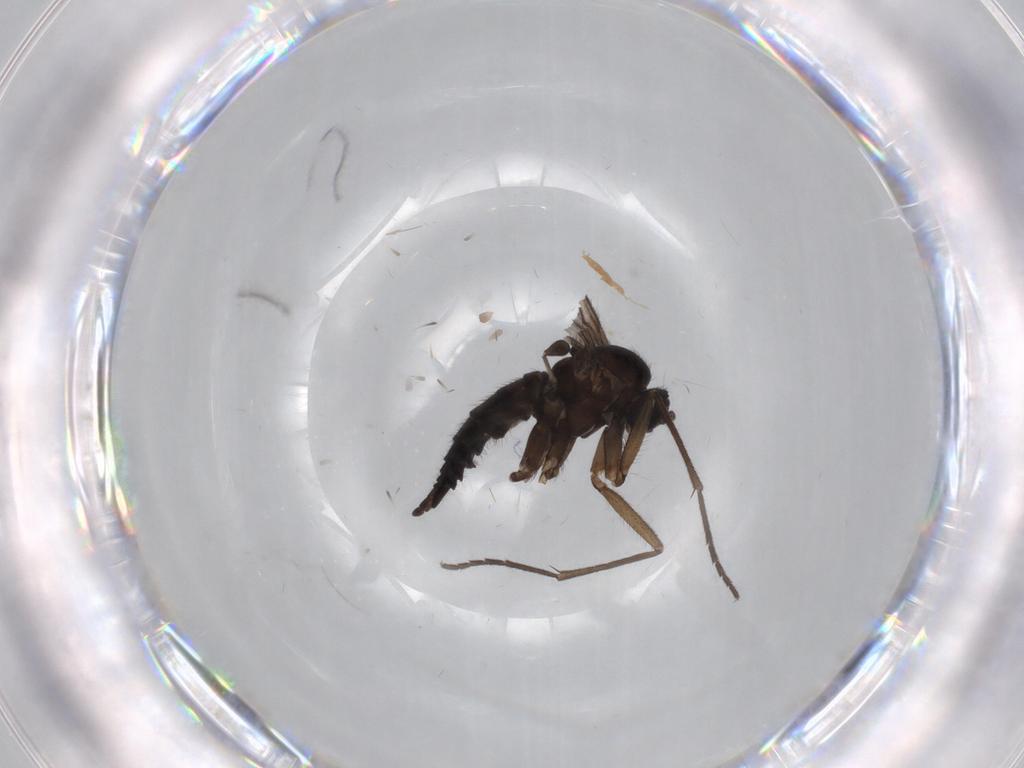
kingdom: Animalia
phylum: Arthropoda
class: Insecta
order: Diptera
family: Sciaridae
